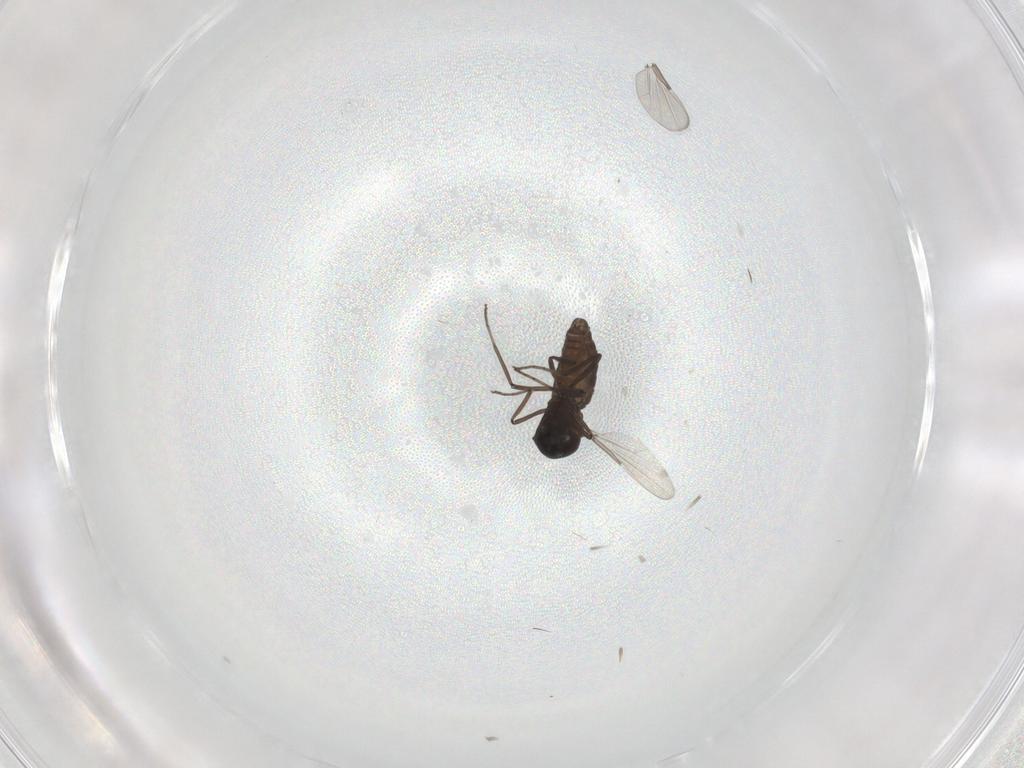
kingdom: Animalia
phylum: Arthropoda
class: Insecta
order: Diptera
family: Ceratopogonidae
